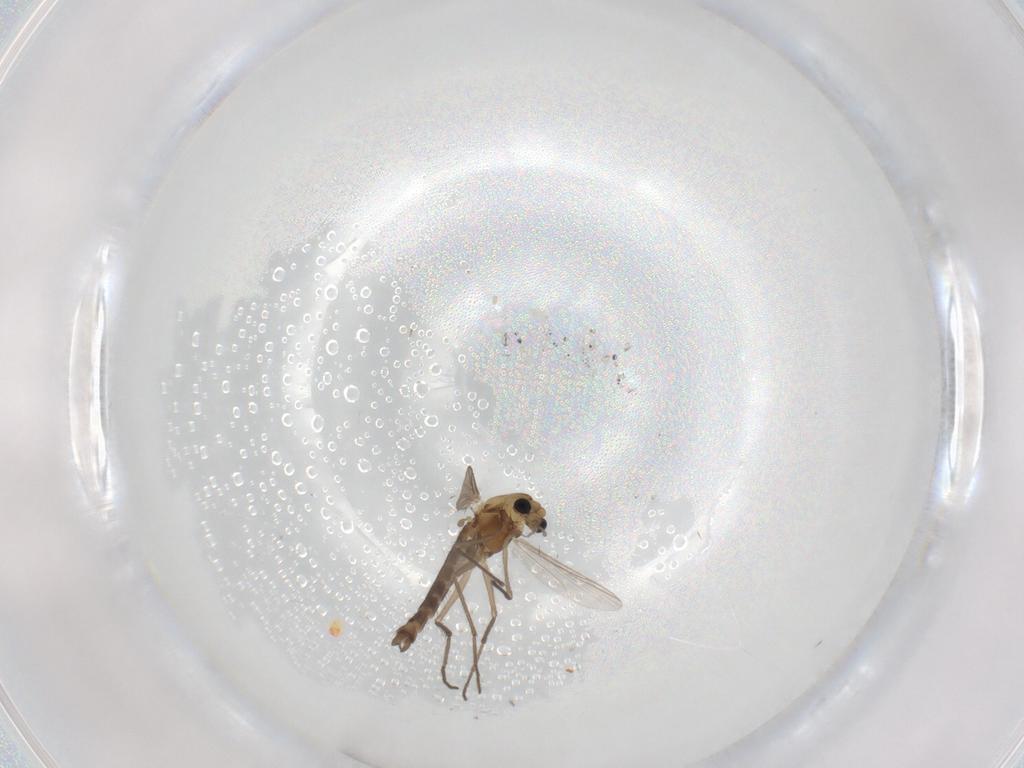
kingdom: Animalia
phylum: Arthropoda
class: Insecta
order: Diptera
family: Chironomidae
